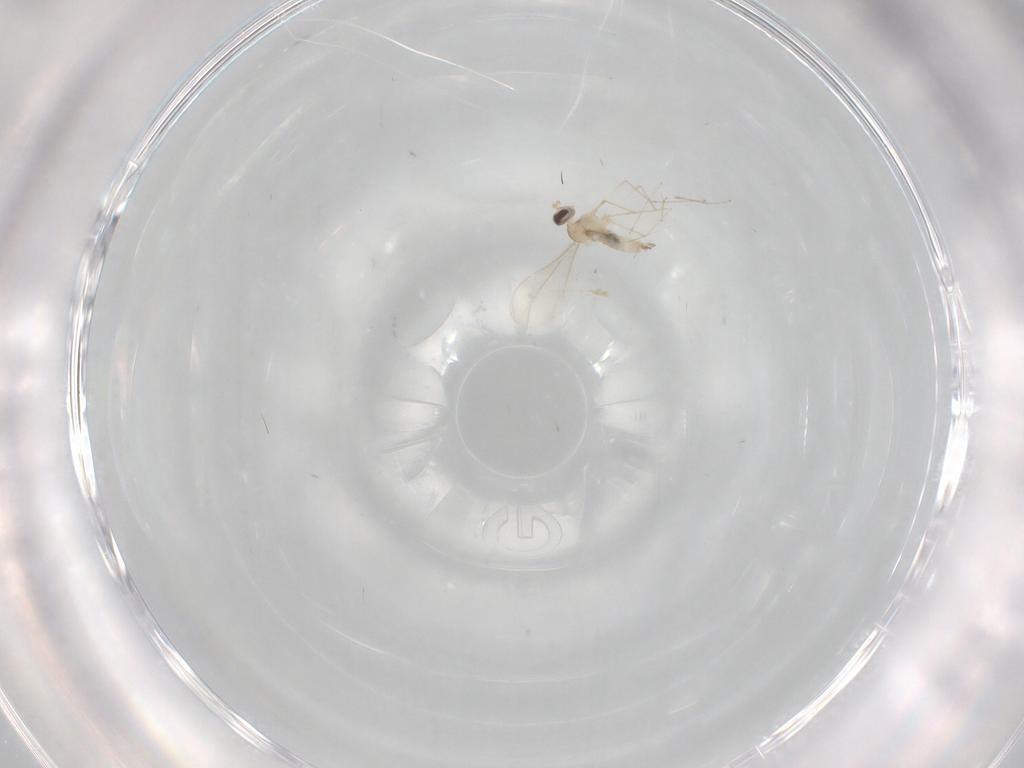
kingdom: Animalia
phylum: Arthropoda
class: Insecta
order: Diptera
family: Cecidomyiidae
